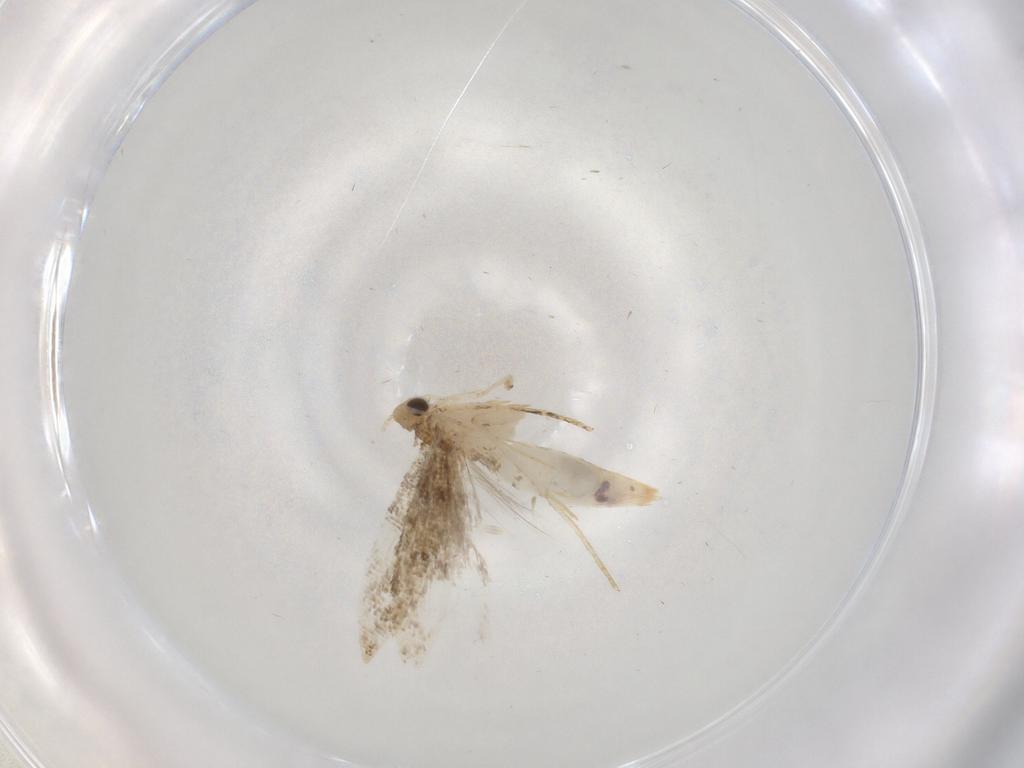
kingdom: Animalia
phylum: Arthropoda
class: Insecta
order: Lepidoptera
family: Tineidae
